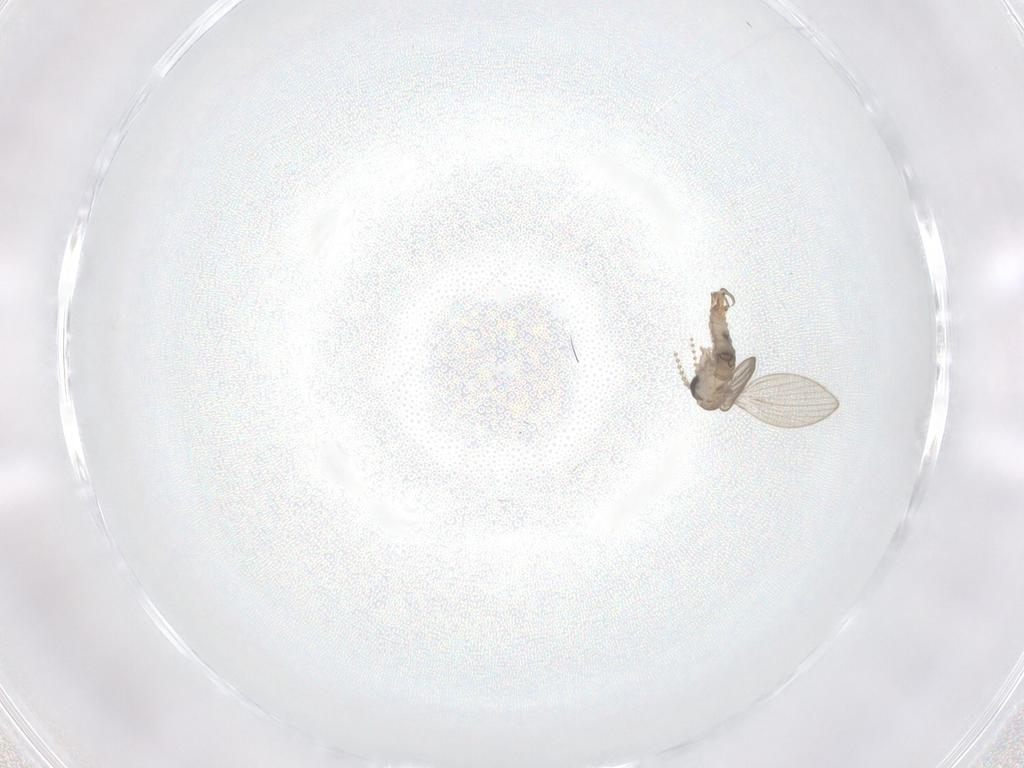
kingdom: Animalia
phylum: Arthropoda
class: Insecta
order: Diptera
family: Psychodidae
